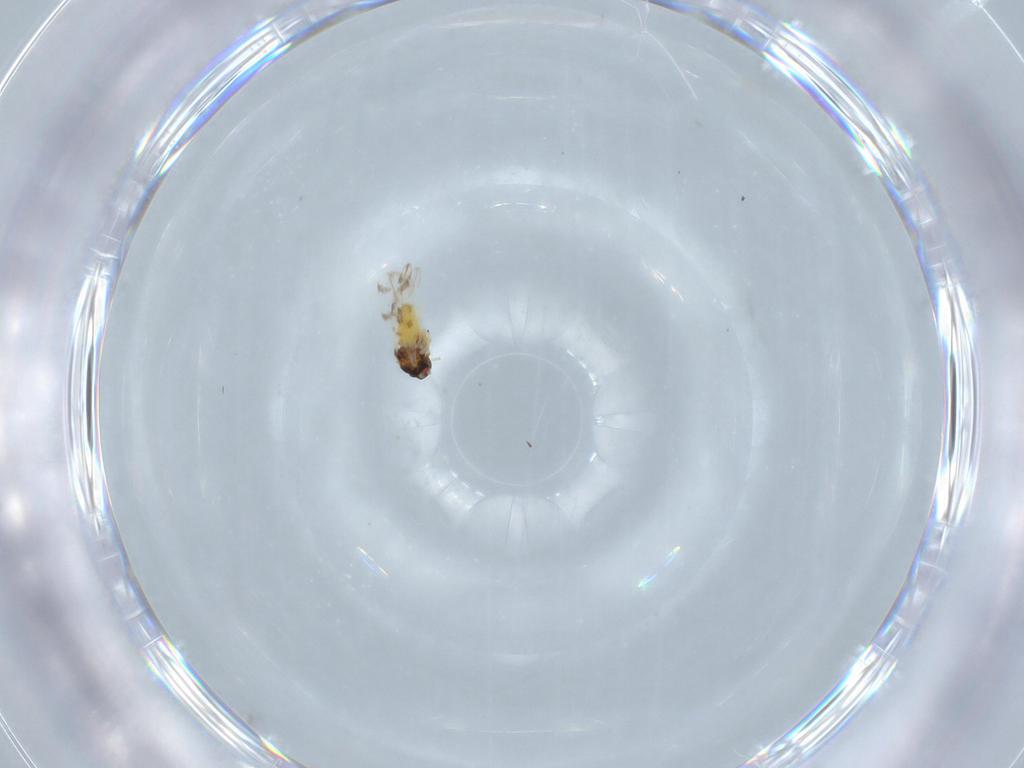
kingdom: Animalia
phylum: Arthropoda
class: Insecta
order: Hemiptera
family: Aleyrodidae
